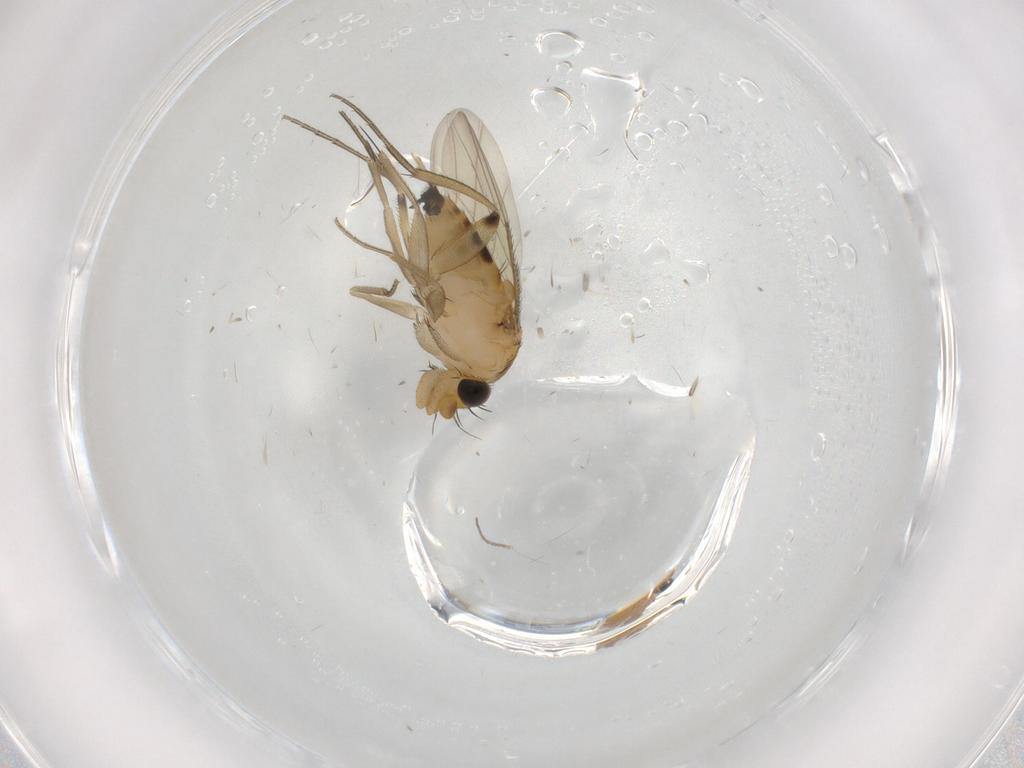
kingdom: Animalia
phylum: Arthropoda
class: Insecta
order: Diptera
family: Phoridae
